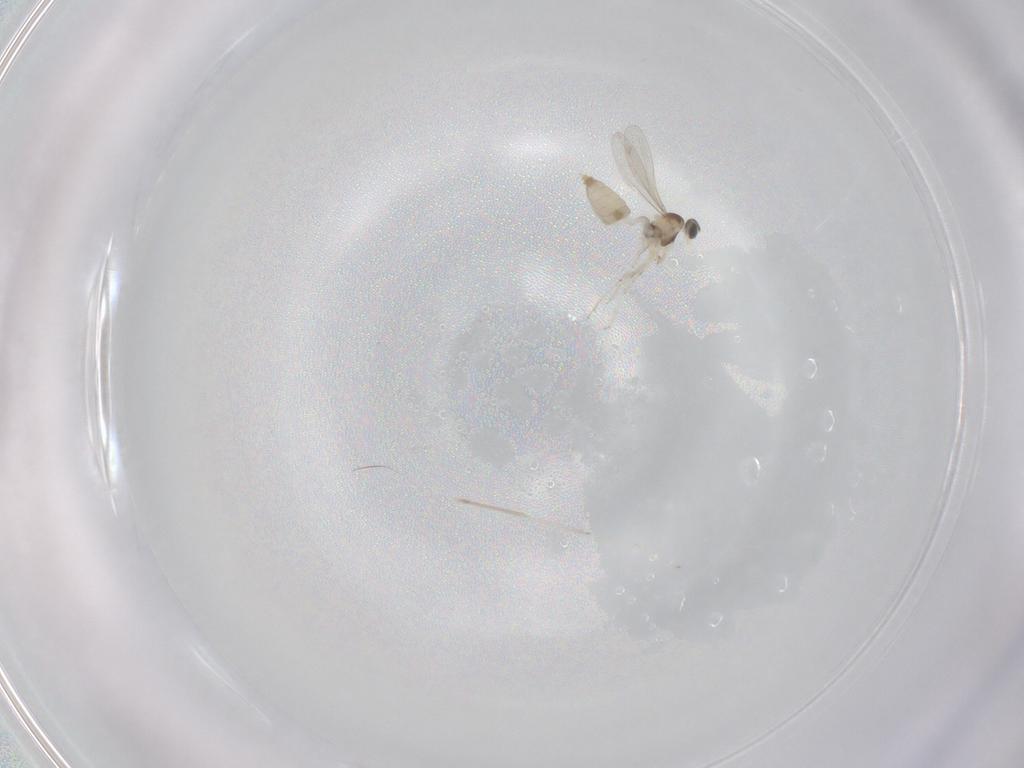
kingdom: Animalia
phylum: Arthropoda
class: Insecta
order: Diptera
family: Cecidomyiidae
